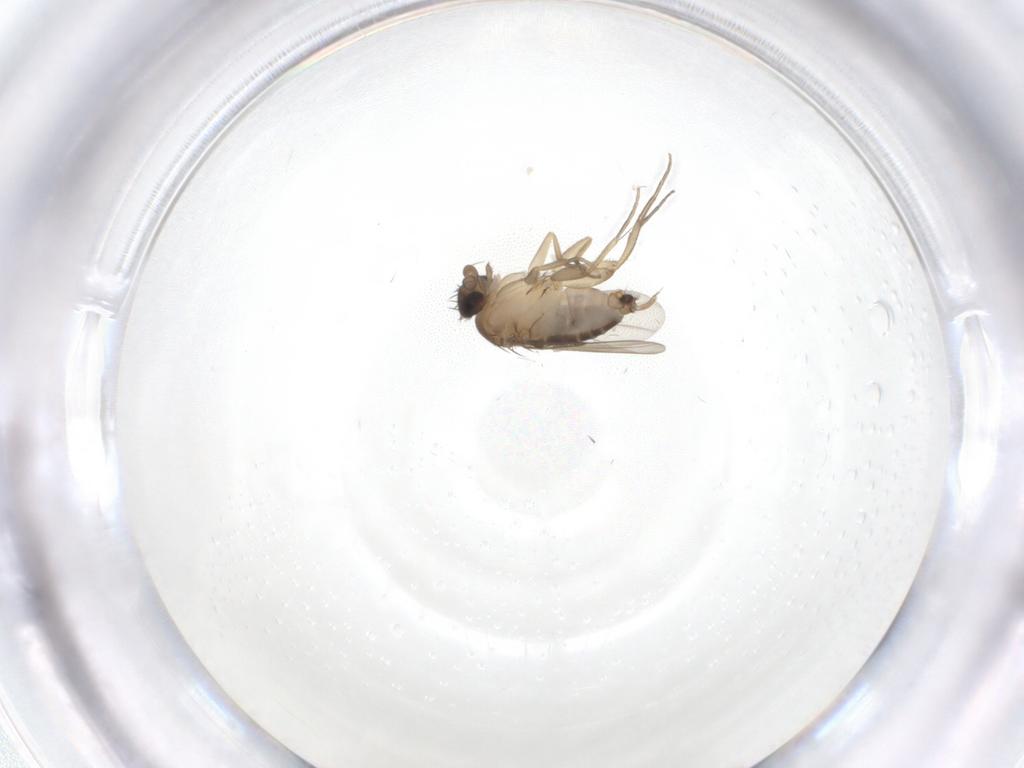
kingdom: Animalia
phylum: Arthropoda
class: Insecta
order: Diptera
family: Phoridae
